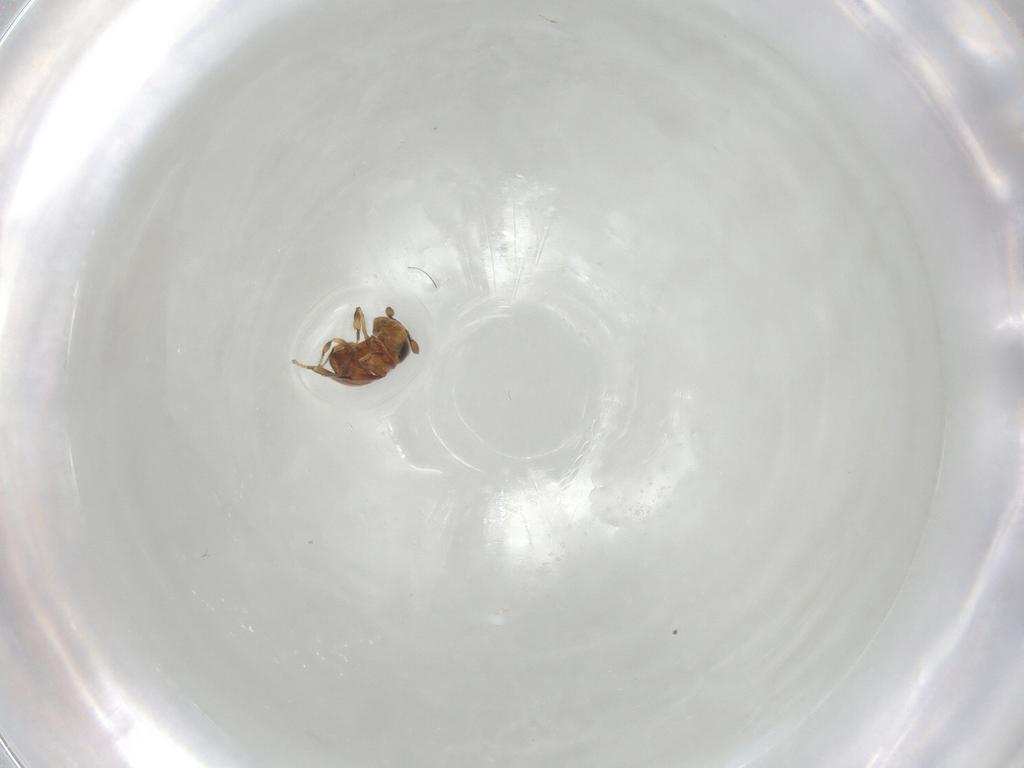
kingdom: Animalia
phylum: Arthropoda
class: Insecta
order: Hymenoptera
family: Scelionidae
